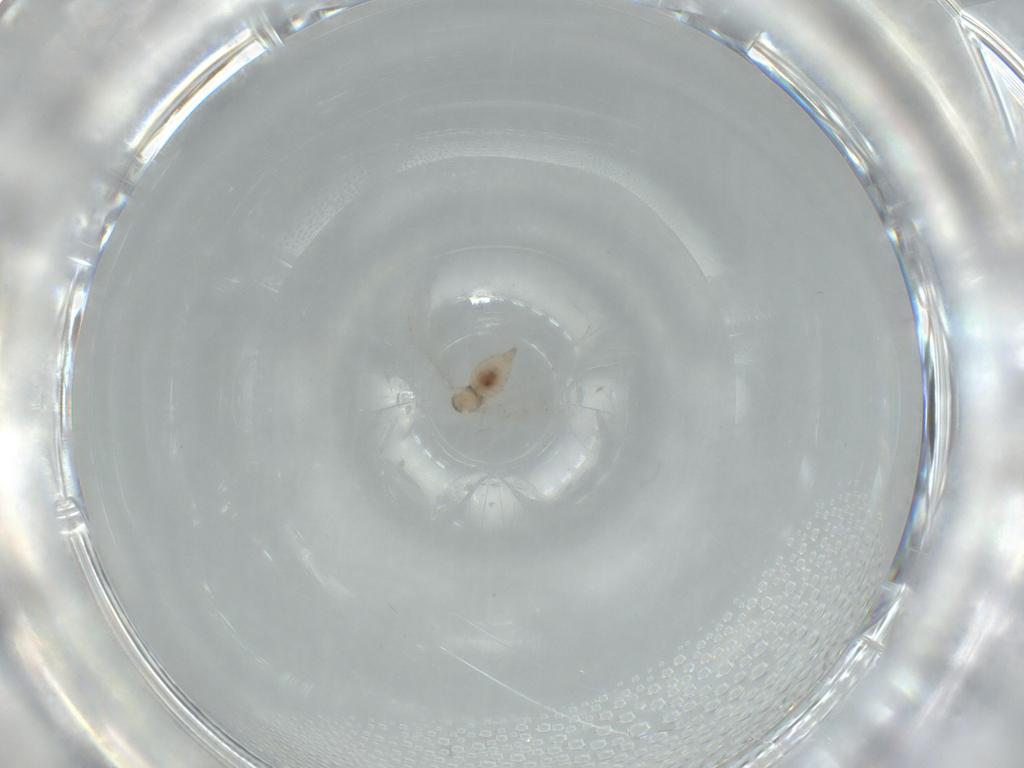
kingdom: Animalia
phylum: Arthropoda
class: Insecta
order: Diptera
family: Cecidomyiidae
